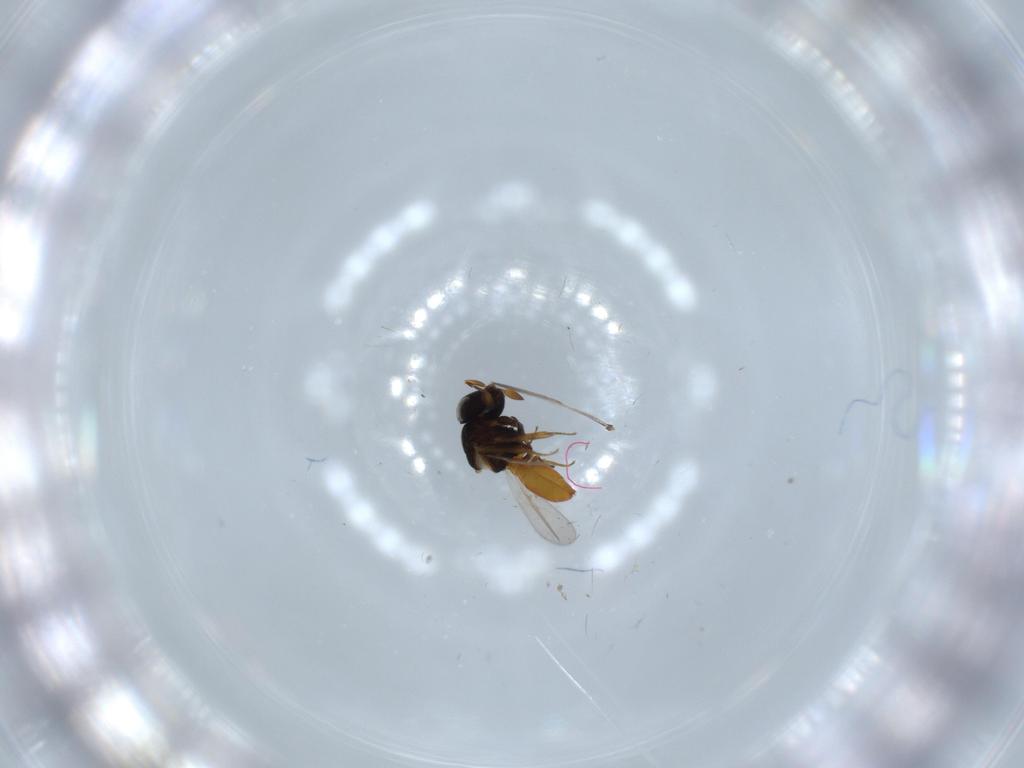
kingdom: Animalia
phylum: Arthropoda
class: Insecta
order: Hymenoptera
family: Scelionidae
